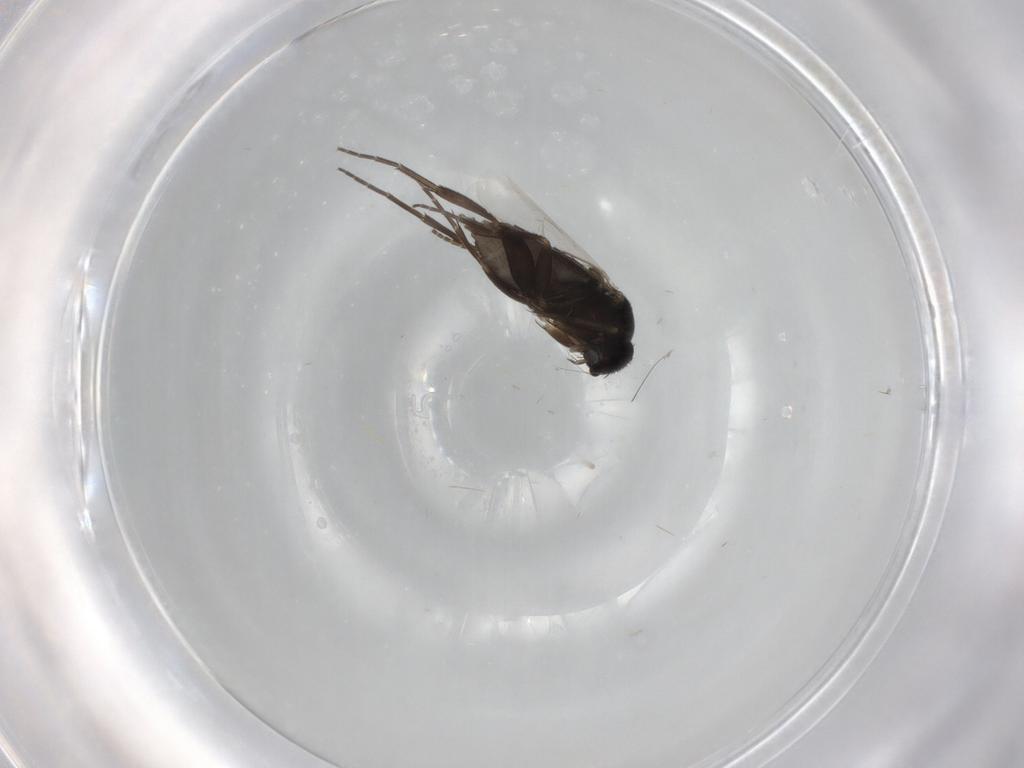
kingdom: Animalia
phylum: Arthropoda
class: Insecta
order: Diptera
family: Phoridae
